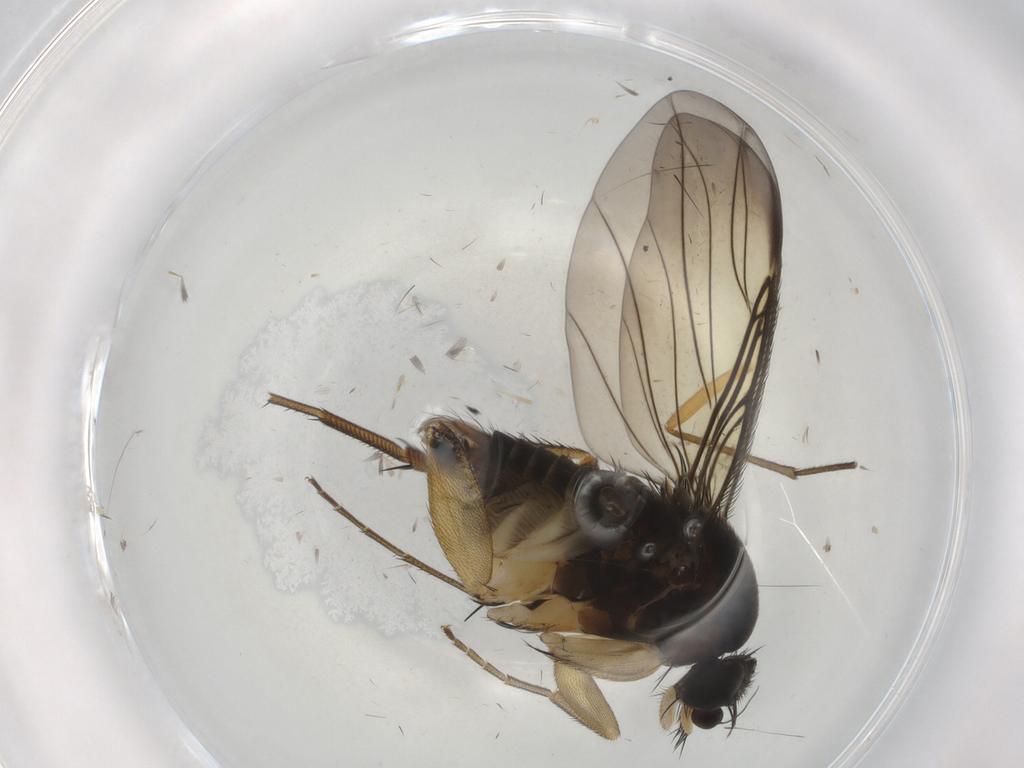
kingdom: Animalia
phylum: Arthropoda
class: Insecta
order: Diptera
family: Phoridae
